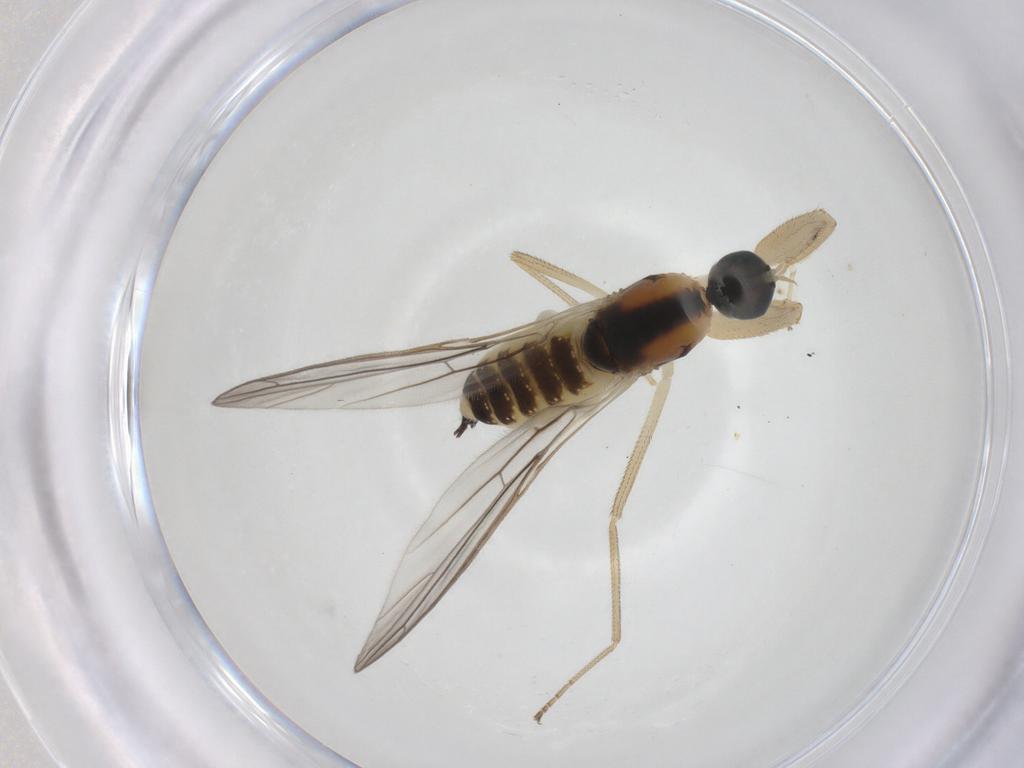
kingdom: Animalia
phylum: Arthropoda
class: Insecta
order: Diptera
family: Empididae
